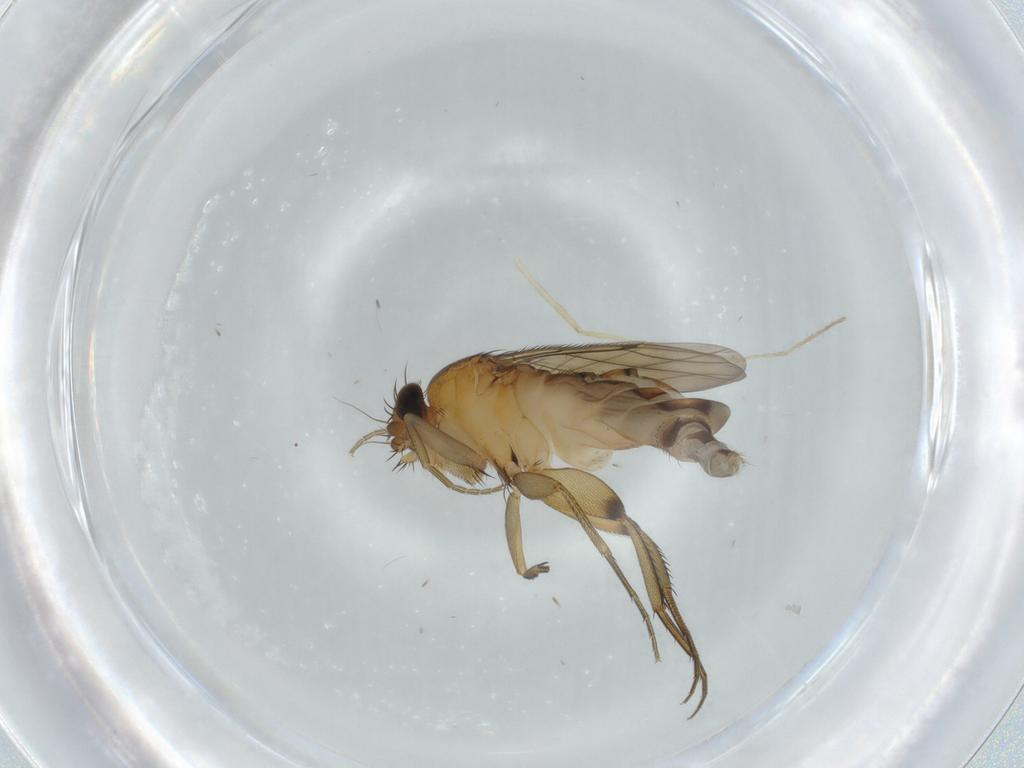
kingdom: Animalia
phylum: Arthropoda
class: Insecta
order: Diptera
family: Phoridae
